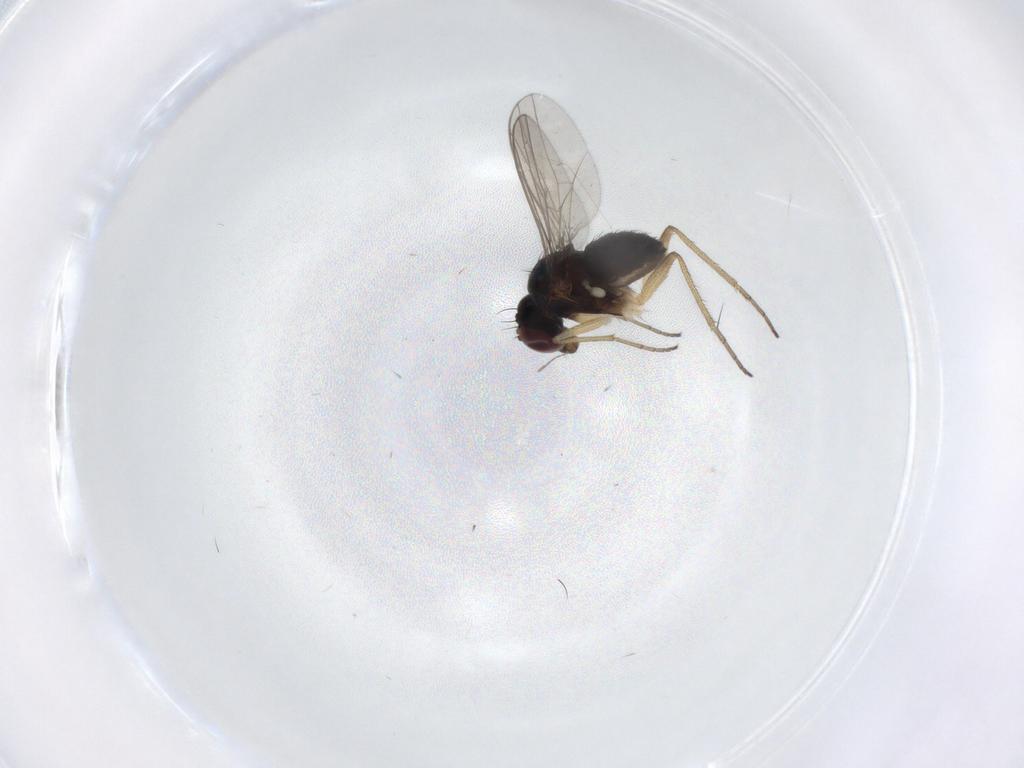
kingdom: Animalia
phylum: Arthropoda
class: Insecta
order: Diptera
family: Dolichopodidae
